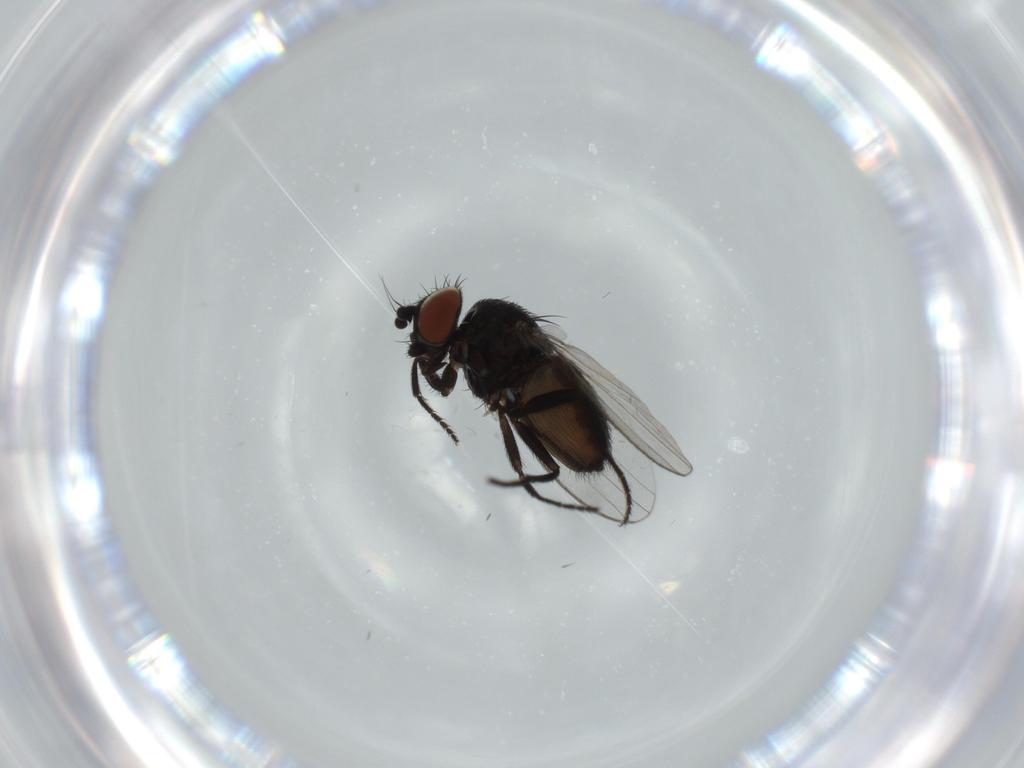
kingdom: Animalia
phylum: Arthropoda
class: Insecta
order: Diptera
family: Milichiidae
